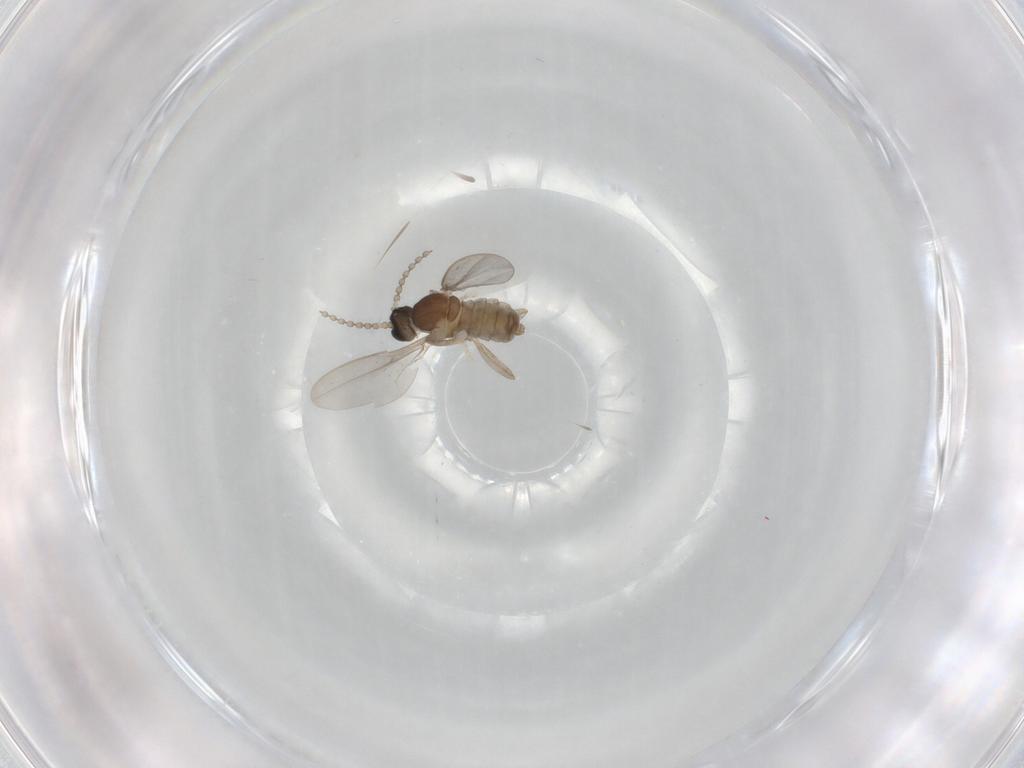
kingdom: Animalia
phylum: Arthropoda
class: Insecta
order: Diptera
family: Cecidomyiidae
